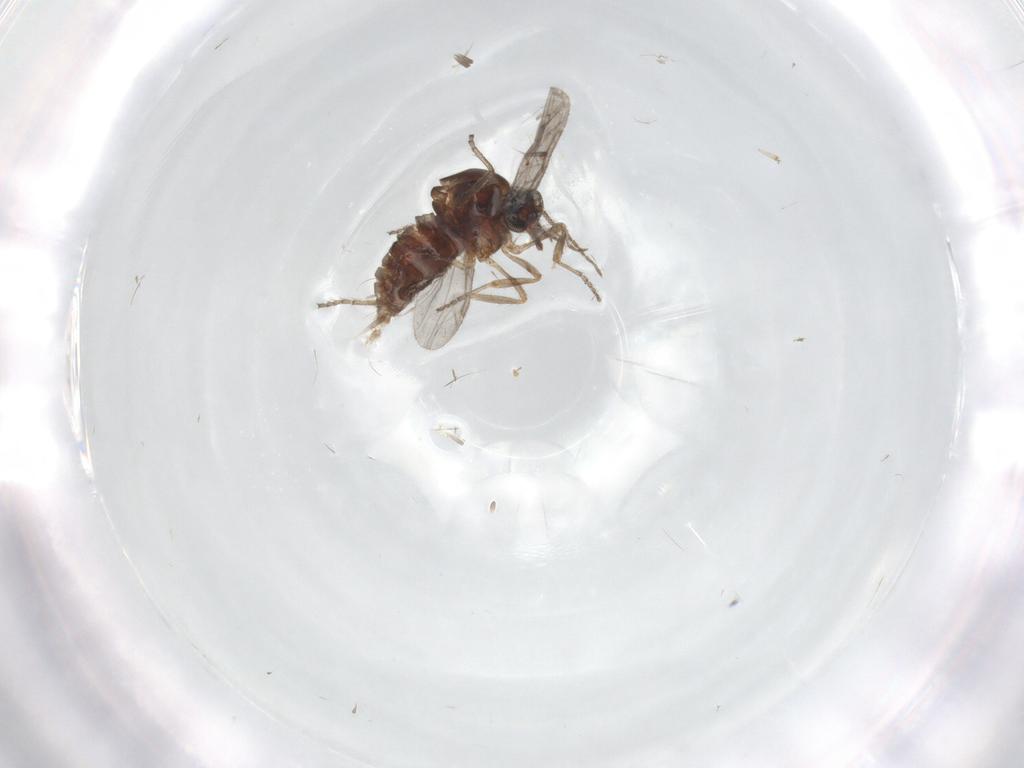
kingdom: Animalia
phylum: Arthropoda
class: Insecta
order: Diptera
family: Ceratopogonidae
